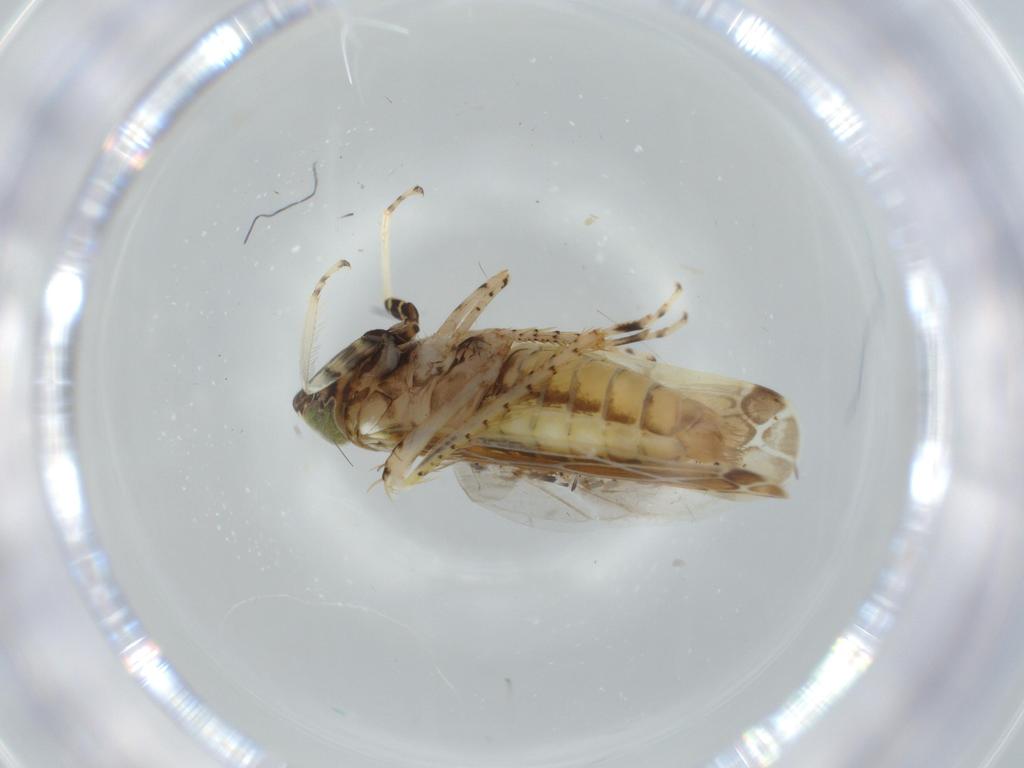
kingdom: Animalia
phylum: Arthropoda
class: Insecta
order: Hemiptera
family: Cicadellidae
